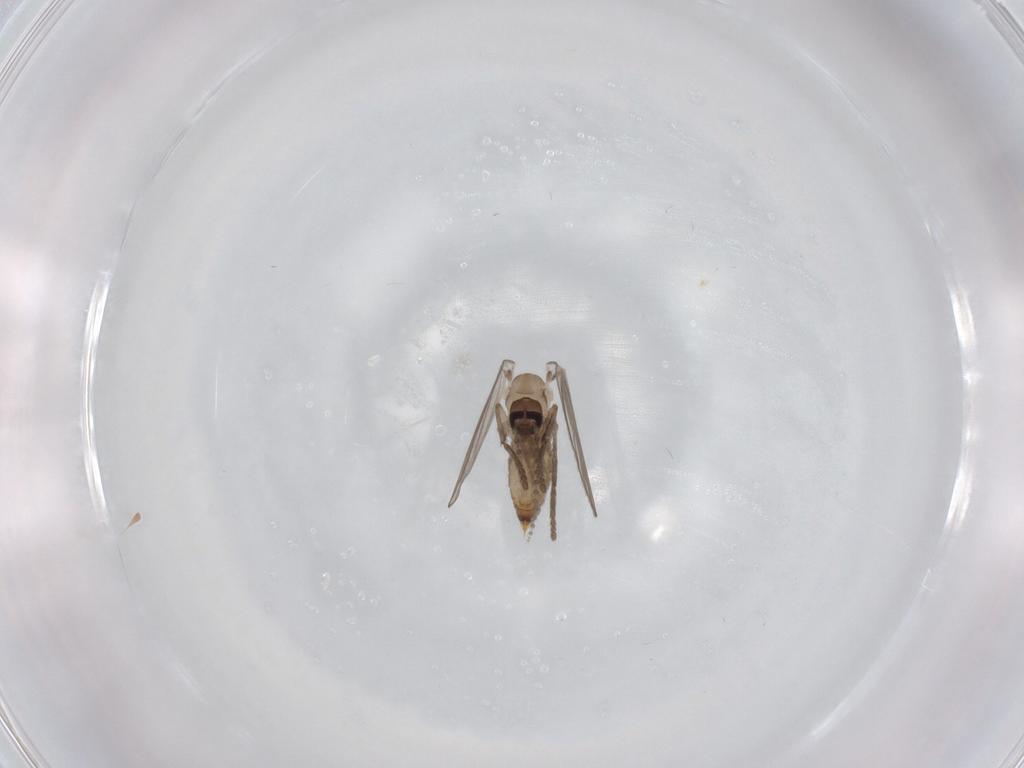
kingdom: Animalia
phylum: Arthropoda
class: Insecta
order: Diptera
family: Psychodidae
